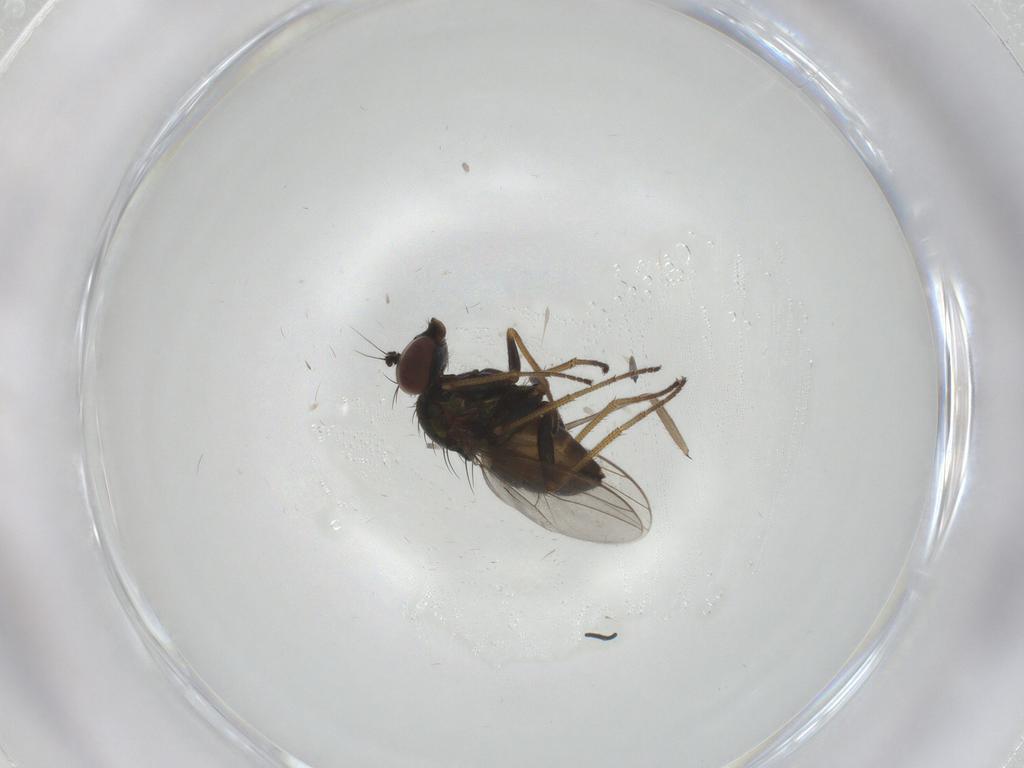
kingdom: Animalia
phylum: Arthropoda
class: Insecta
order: Diptera
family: Dolichopodidae
